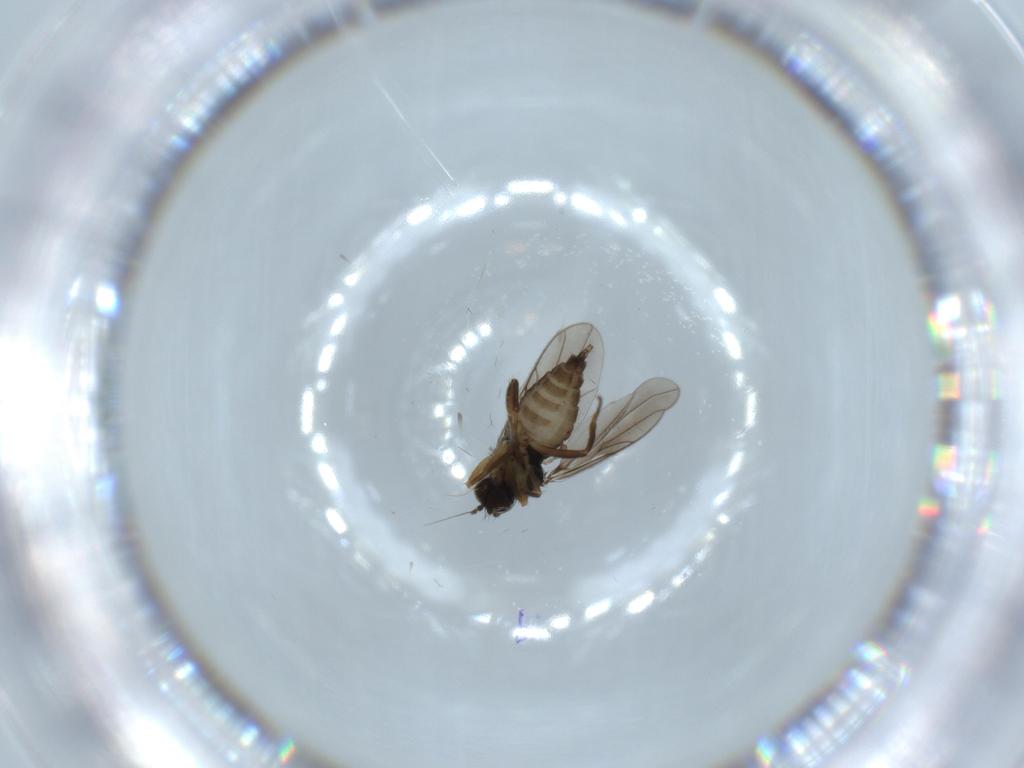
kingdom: Animalia
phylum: Arthropoda
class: Insecta
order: Diptera
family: Hybotidae
